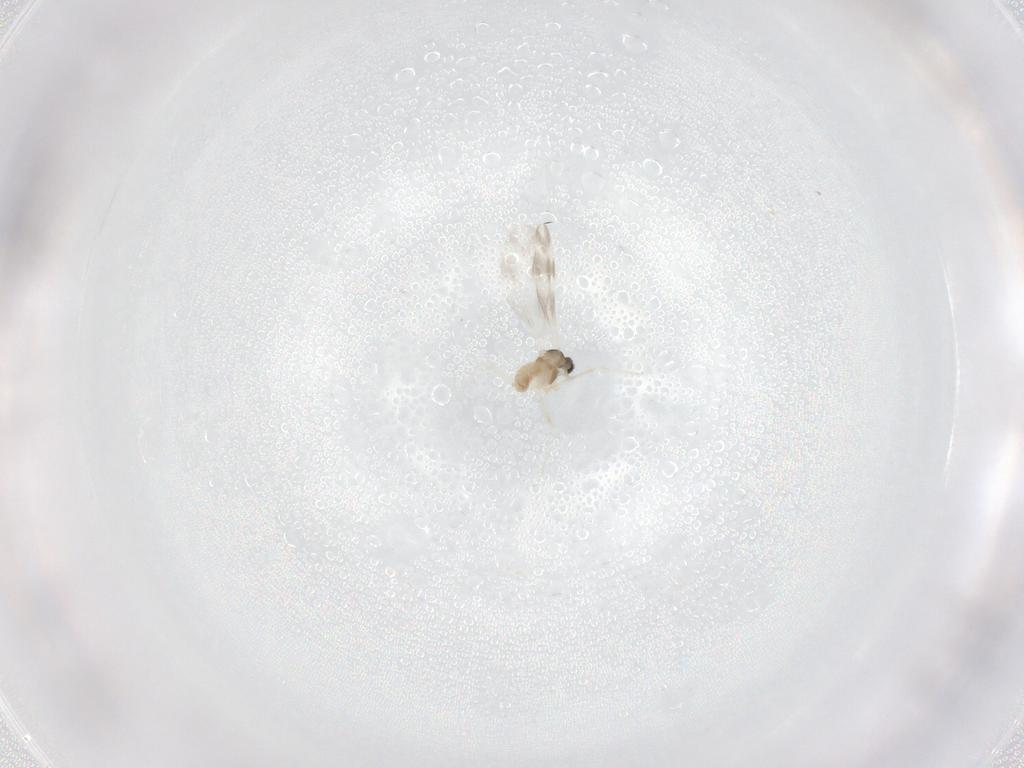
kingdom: Animalia
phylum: Arthropoda
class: Insecta
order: Diptera
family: Cecidomyiidae
